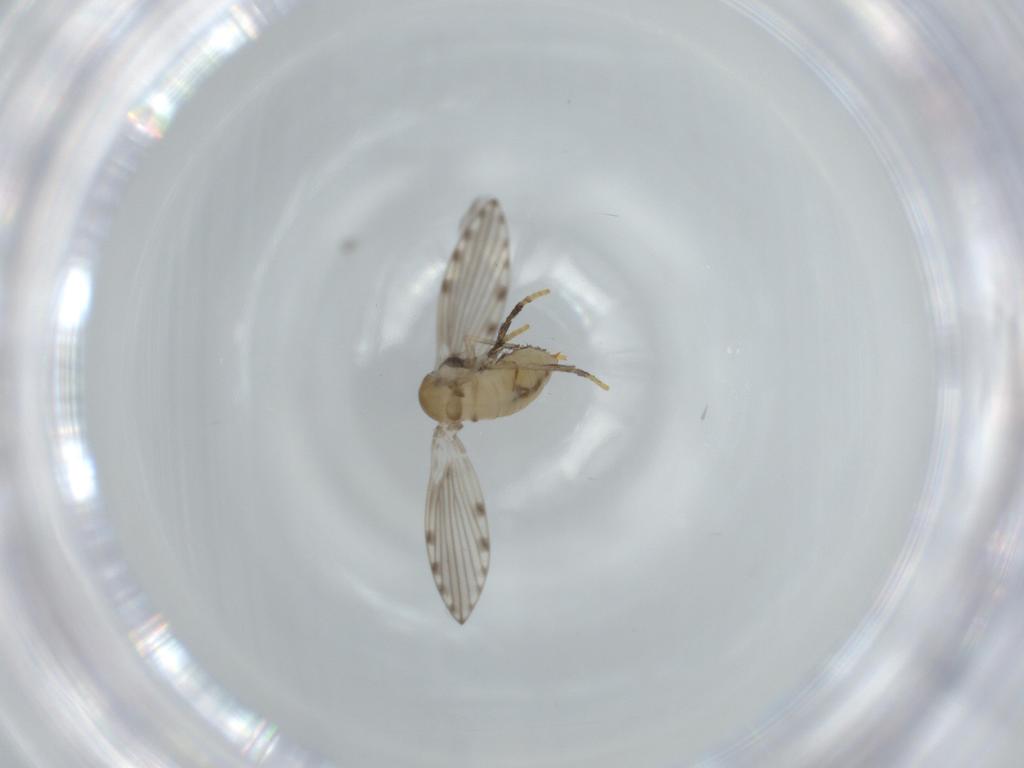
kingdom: Animalia
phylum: Arthropoda
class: Insecta
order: Diptera
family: Psychodidae
